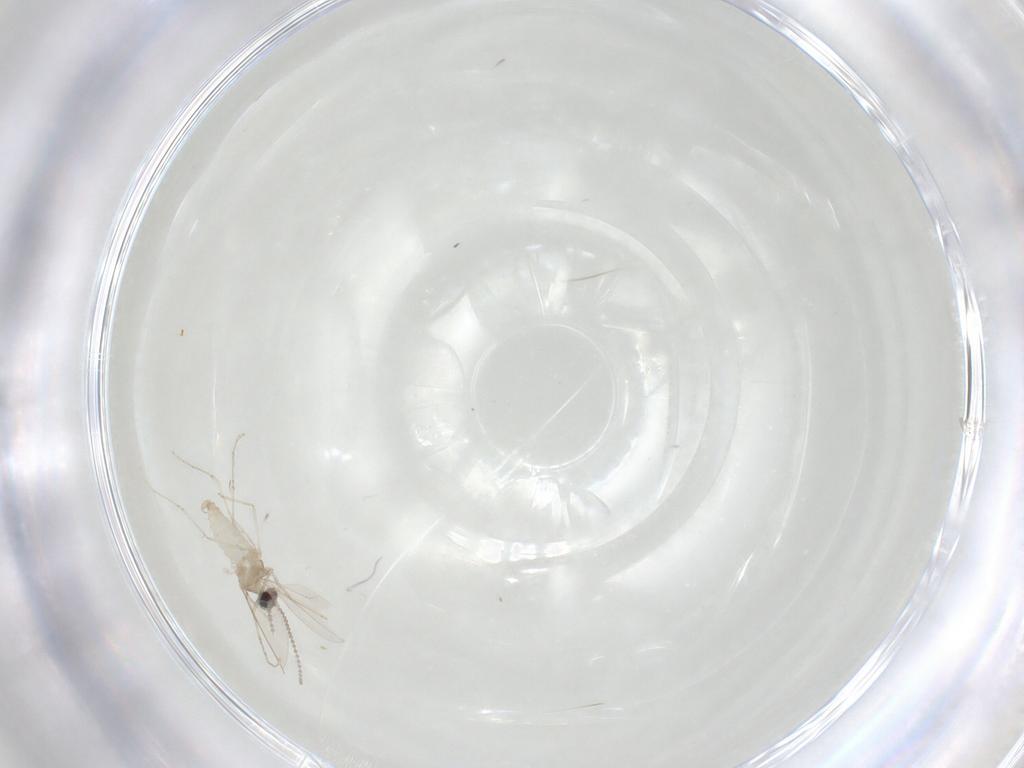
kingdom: Animalia
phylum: Arthropoda
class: Insecta
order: Diptera
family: Cecidomyiidae
